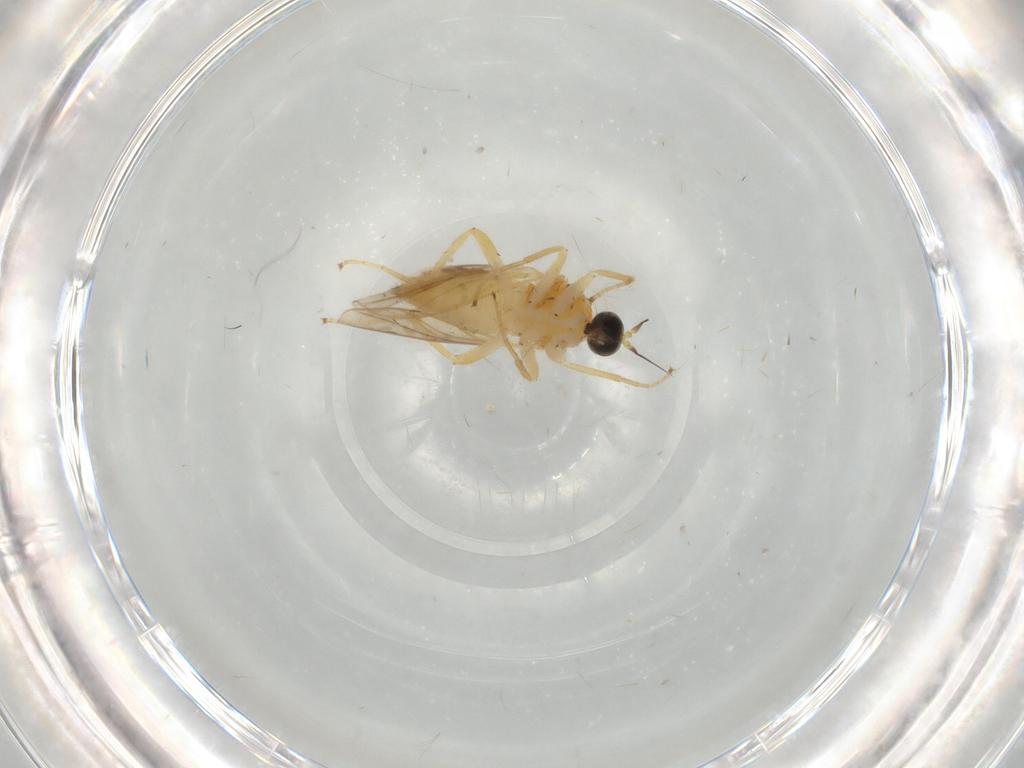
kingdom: Animalia
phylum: Arthropoda
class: Insecta
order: Diptera
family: Hybotidae
